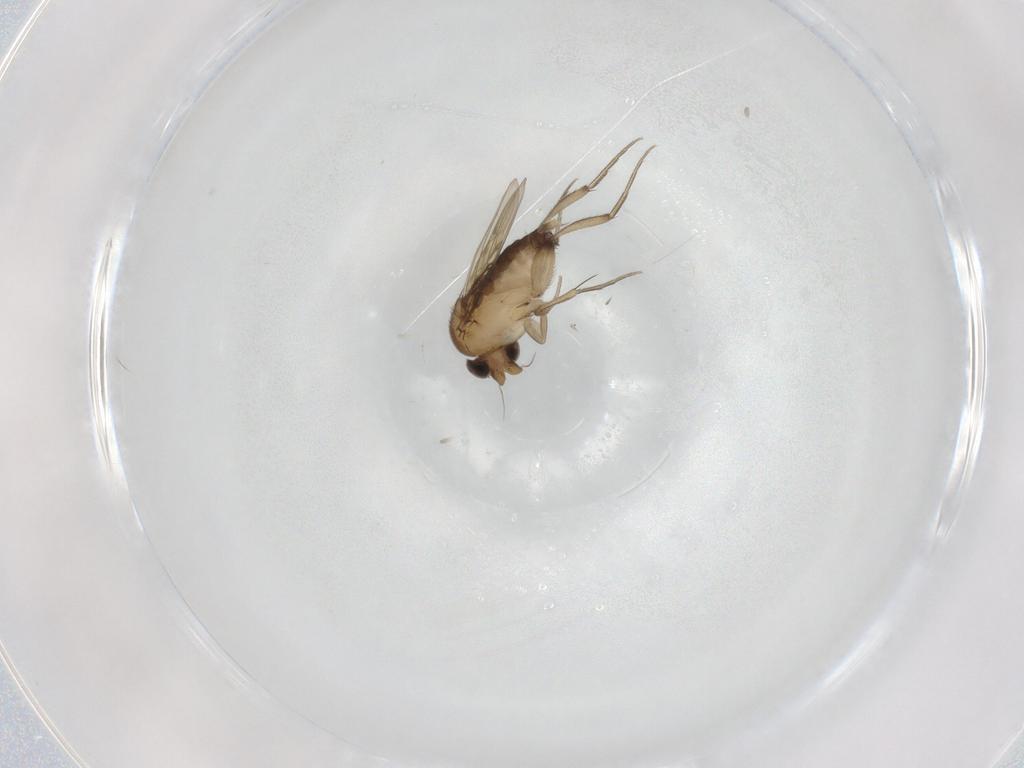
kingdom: Animalia
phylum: Arthropoda
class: Insecta
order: Diptera
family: Phoridae
